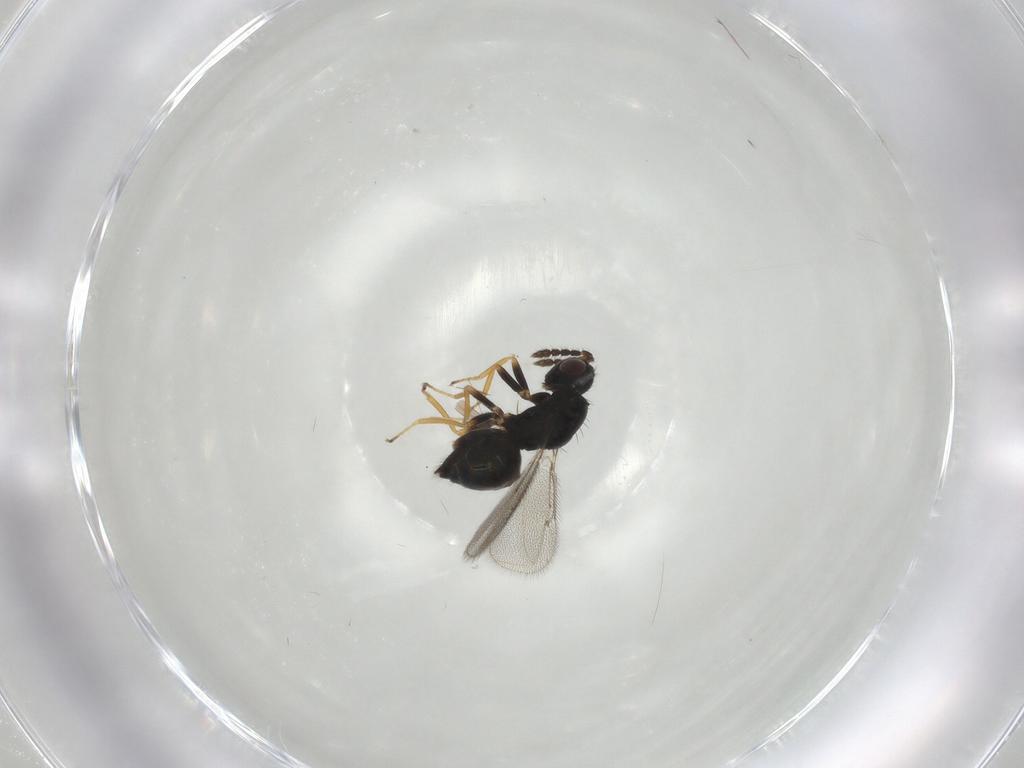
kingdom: Animalia
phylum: Arthropoda
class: Insecta
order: Hymenoptera
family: Eulophidae
